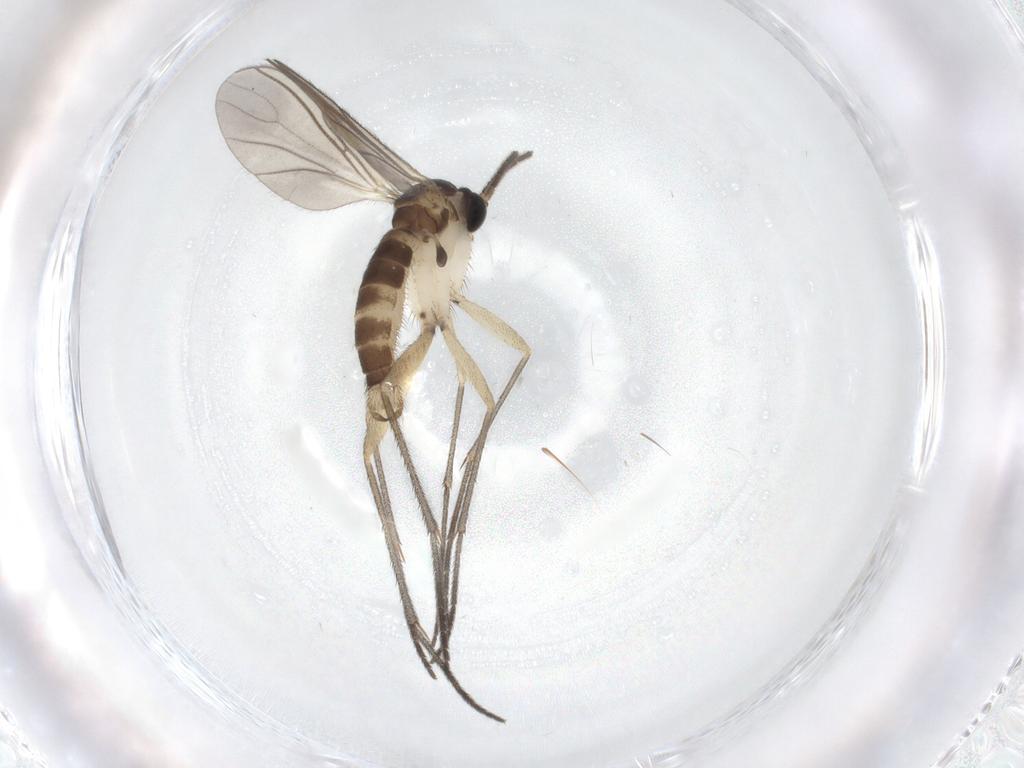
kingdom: Animalia
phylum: Arthropoda
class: Insecta
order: Diptera
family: Sciaridae
